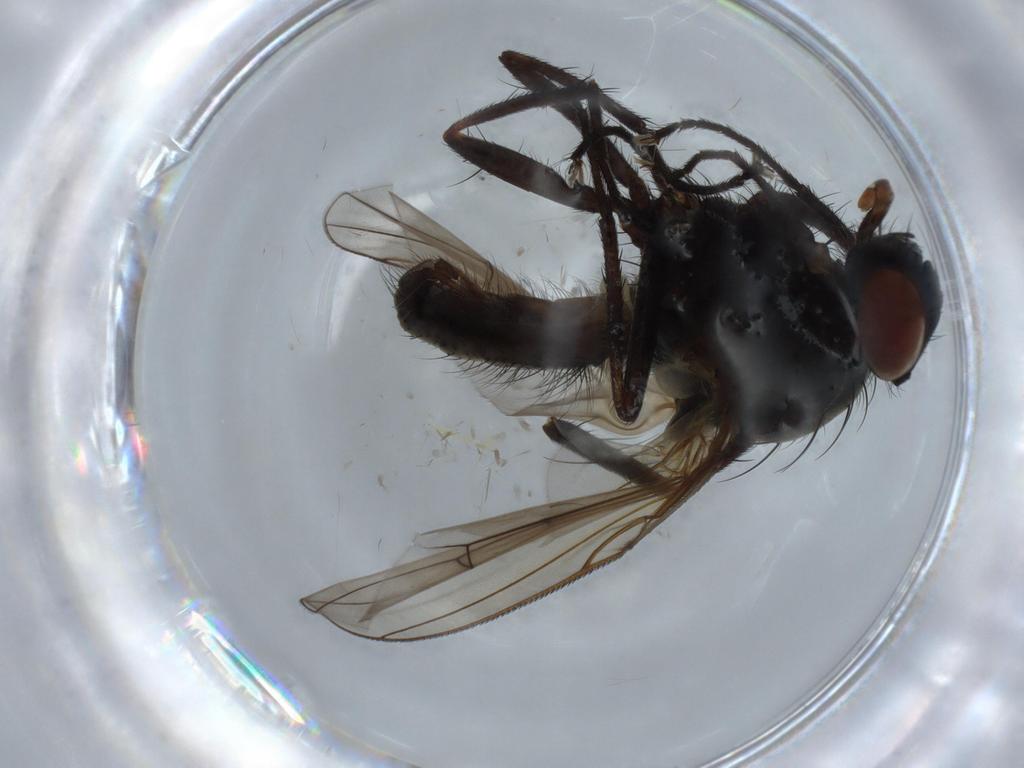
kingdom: Animalia
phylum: Arthropoda
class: Insecta
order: Diptera
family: Anthomyiidae
